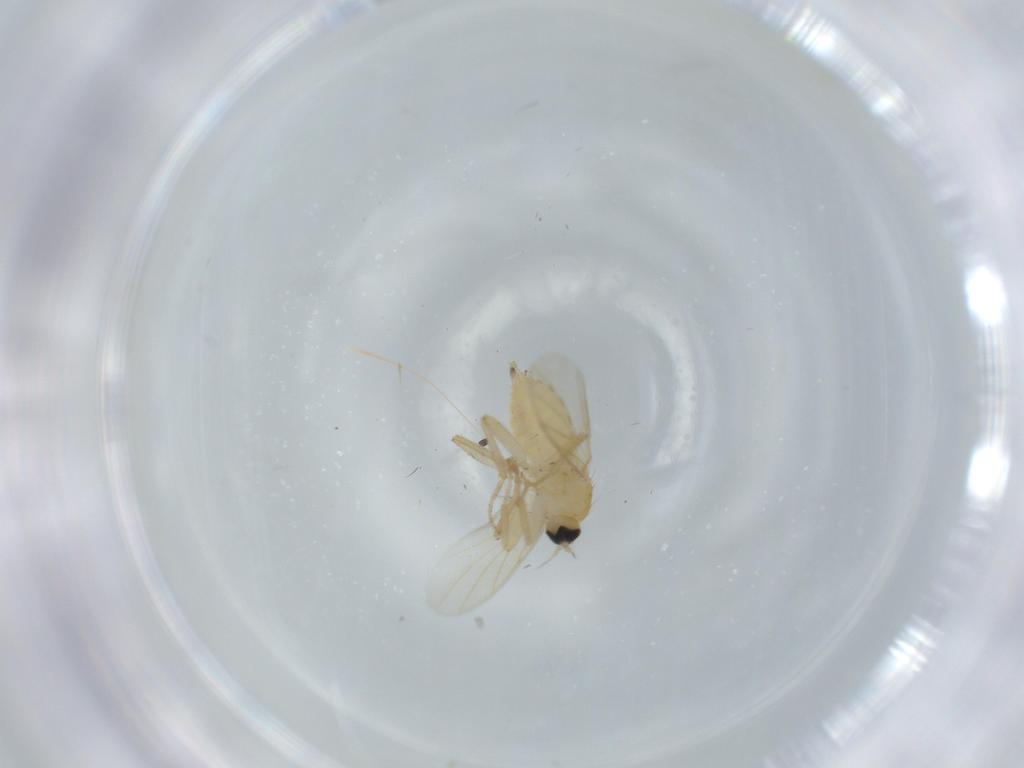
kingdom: Animalia
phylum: Arthropoda
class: Insecta
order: Diptera
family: Hybotidae
